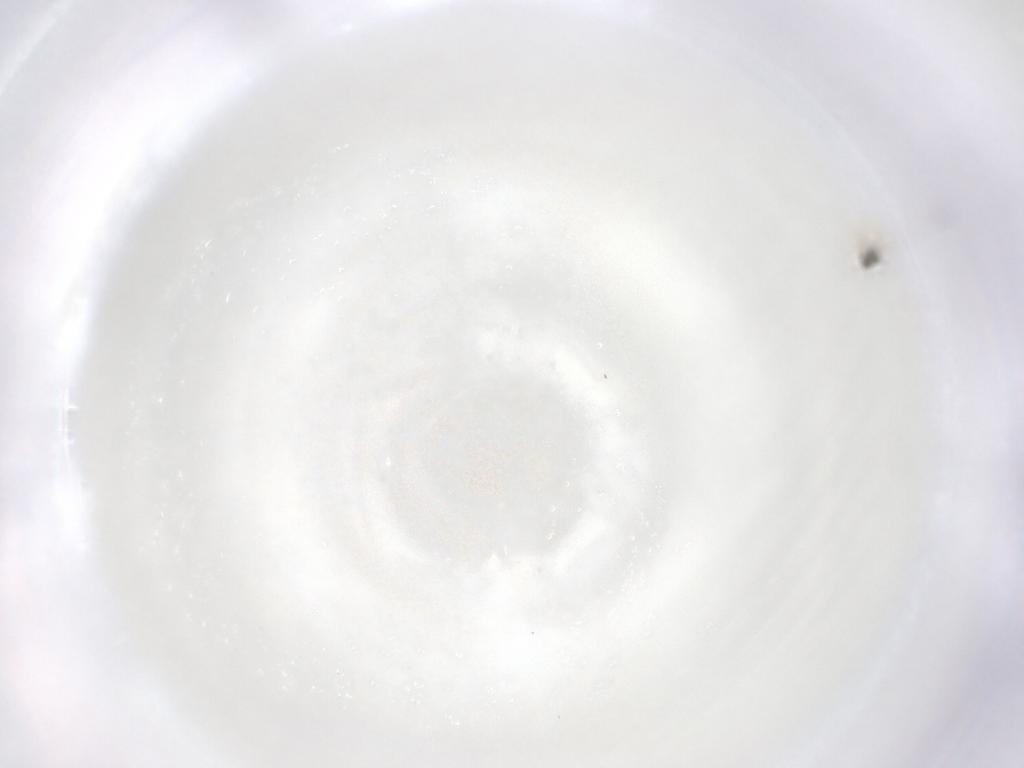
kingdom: Animalia
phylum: Arthropoda
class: Insecta
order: Hymenoptera
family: Mymaridae
